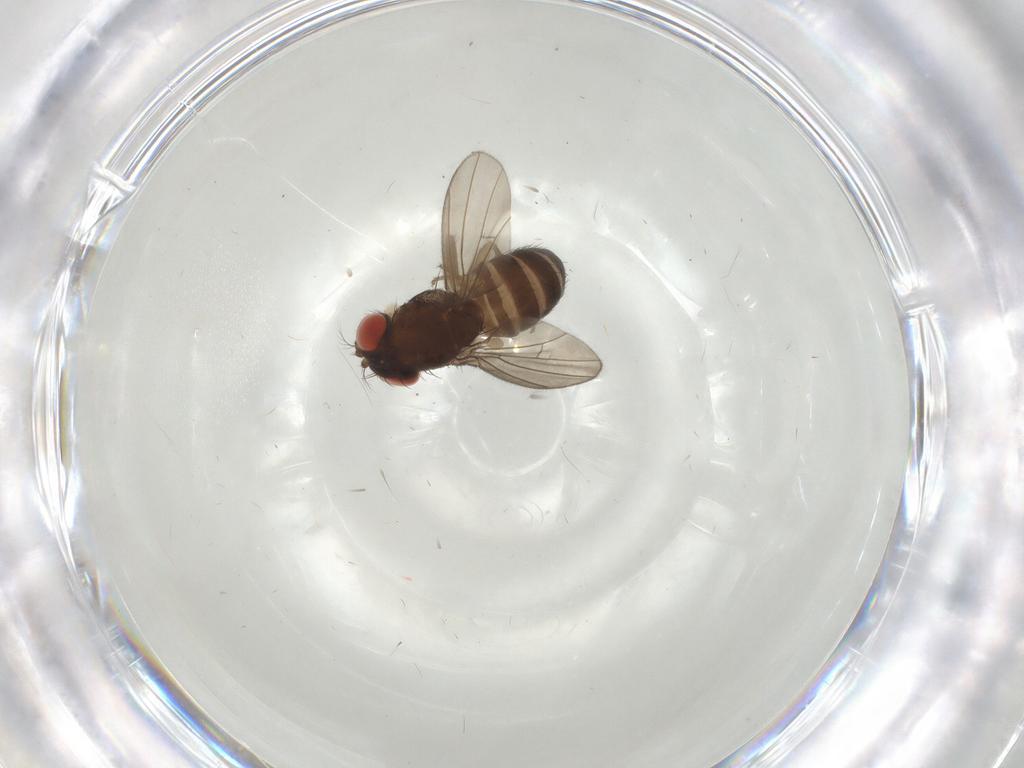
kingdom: Animalia
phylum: Arthropoda
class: Insecta
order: Diptera
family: Drosophilidae
